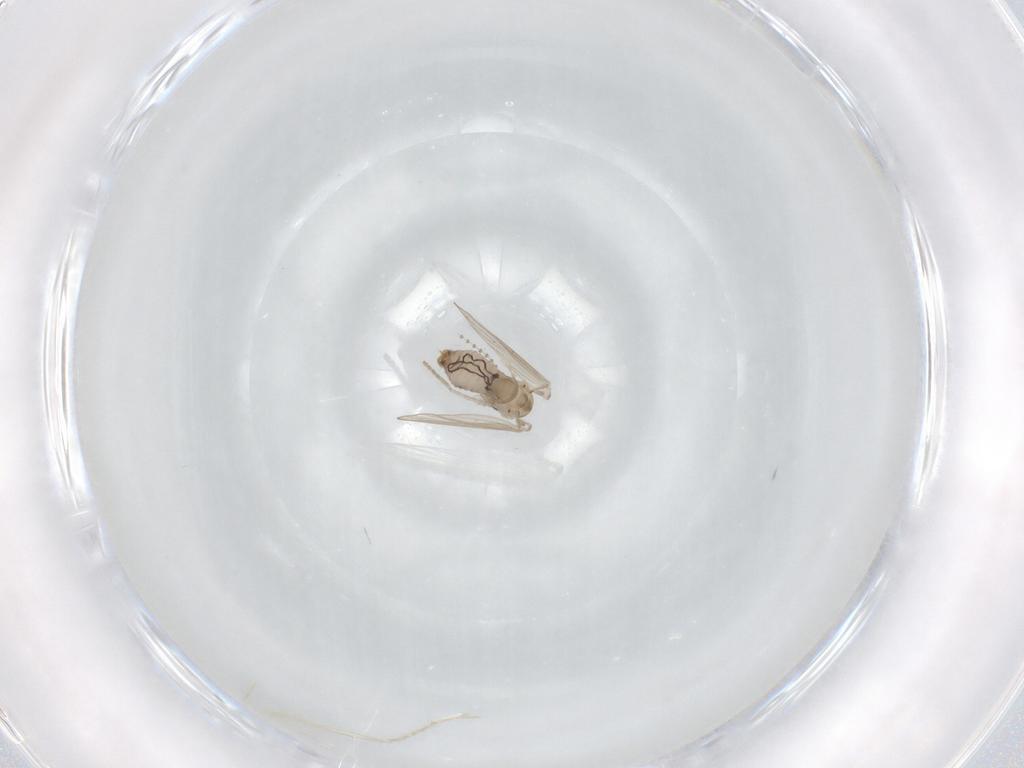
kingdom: Animalia
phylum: Arthropoda
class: Insecta
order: Diptera
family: Psychodidae
